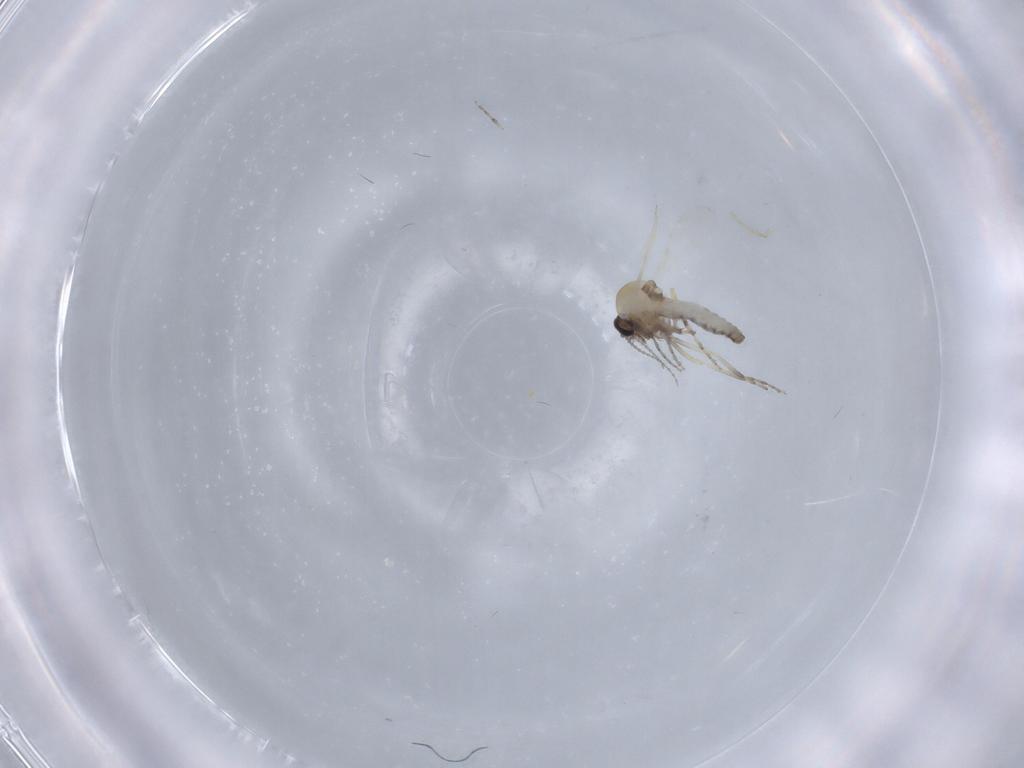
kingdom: Animalia
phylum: Arthropoda
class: Insecta
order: Diptera
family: Ceratopogonidae
